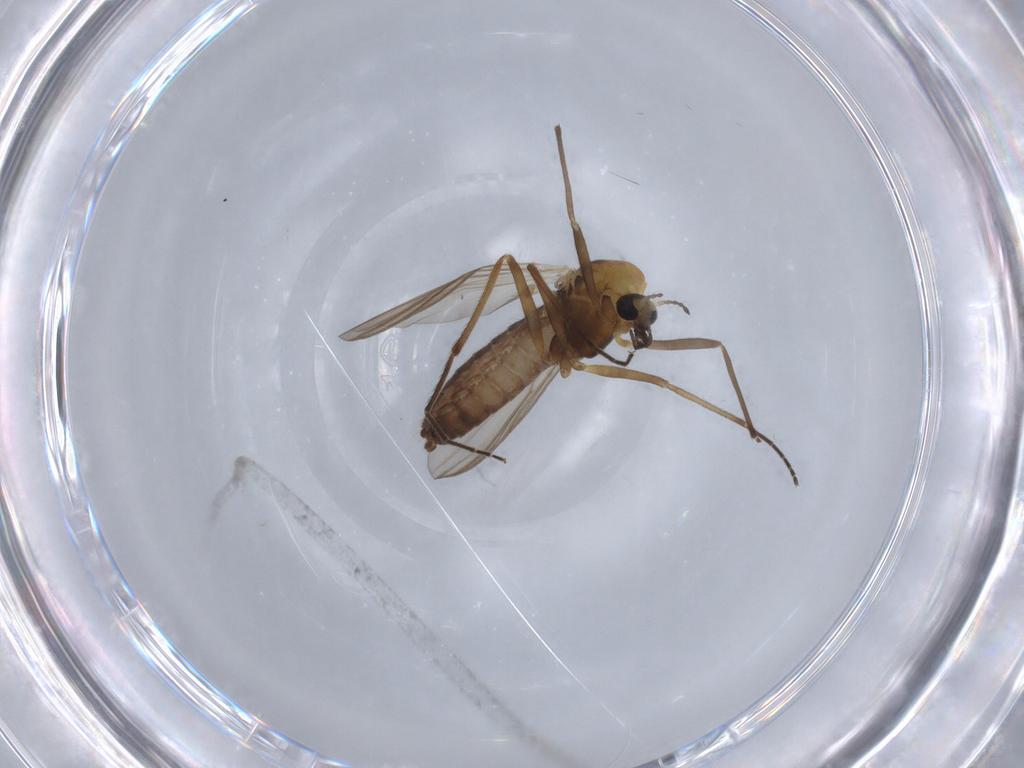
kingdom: Animalia
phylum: Arthropoda
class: Insecta
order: Diptera
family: Chironomidae
